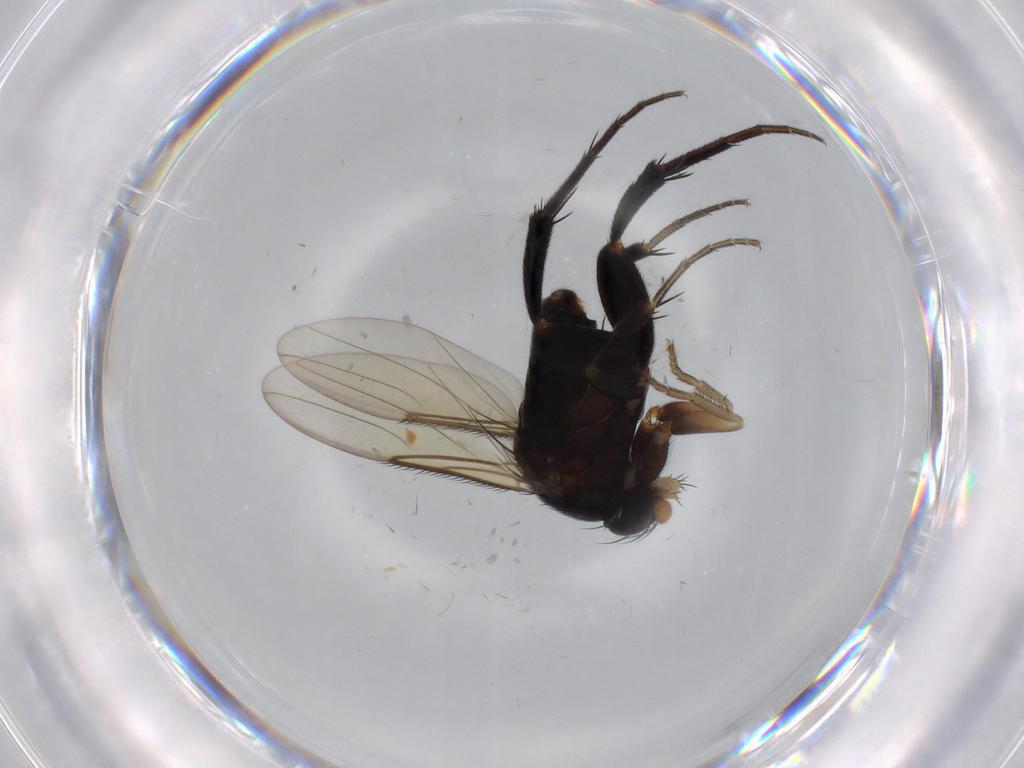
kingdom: Animalia
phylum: Arthropoda
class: Insecta
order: Diptera
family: Phoridae
